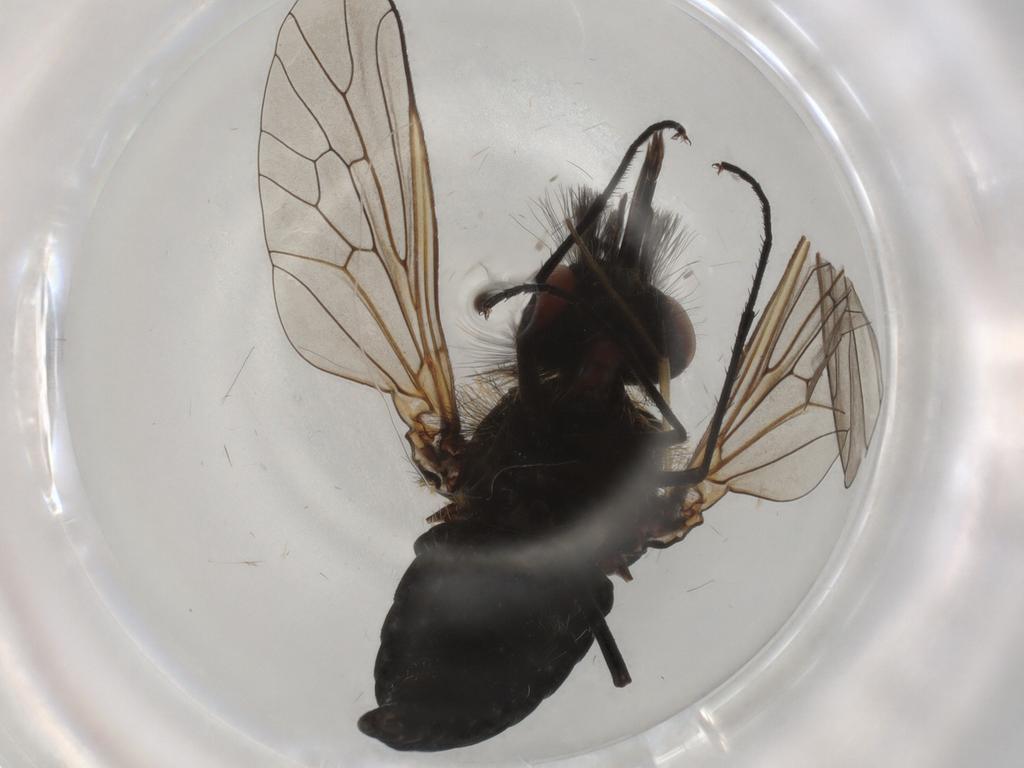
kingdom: Animalia
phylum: Arthropoda
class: Insecta
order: Diptera
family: Bombyliidae
